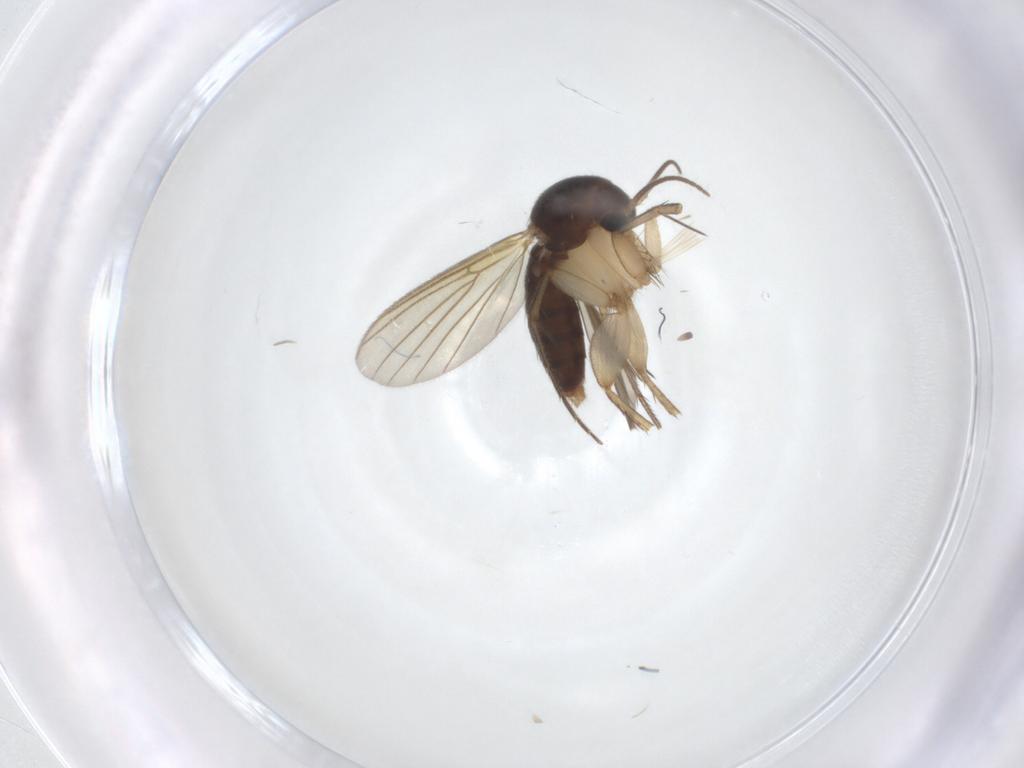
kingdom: Animalia
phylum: Arthropoda
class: Insecta
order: Diptera
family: Mycetophilidae
